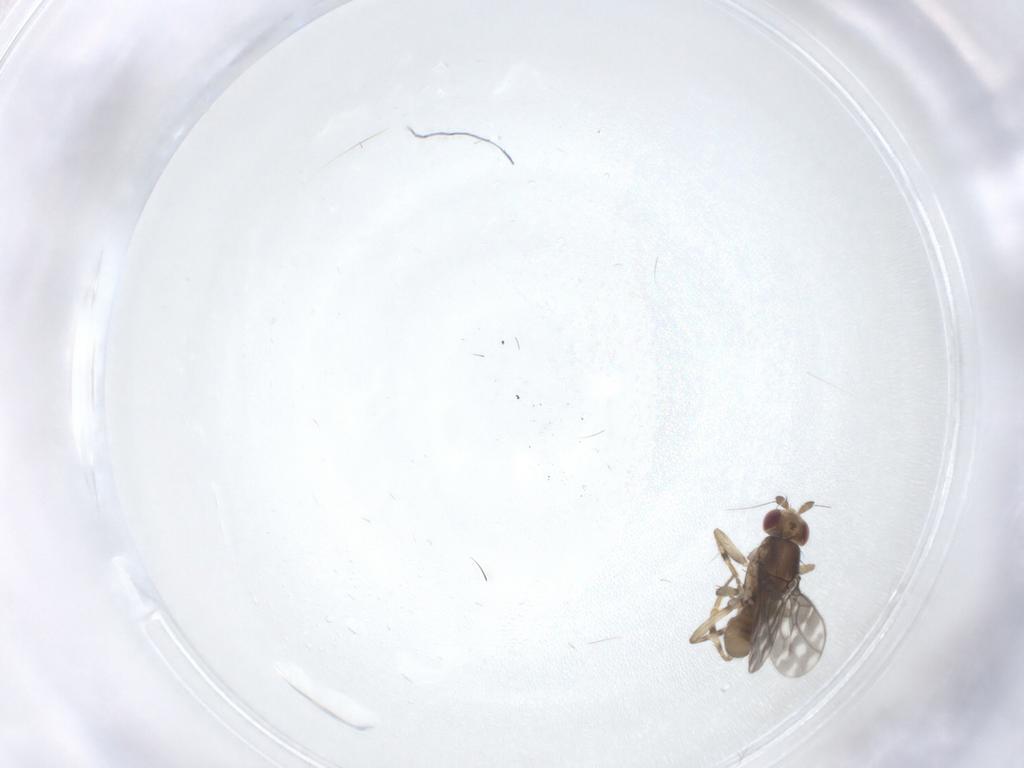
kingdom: Animalia
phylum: Arthropoda
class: Insecta
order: Diptera
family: Sphaeroceridae
